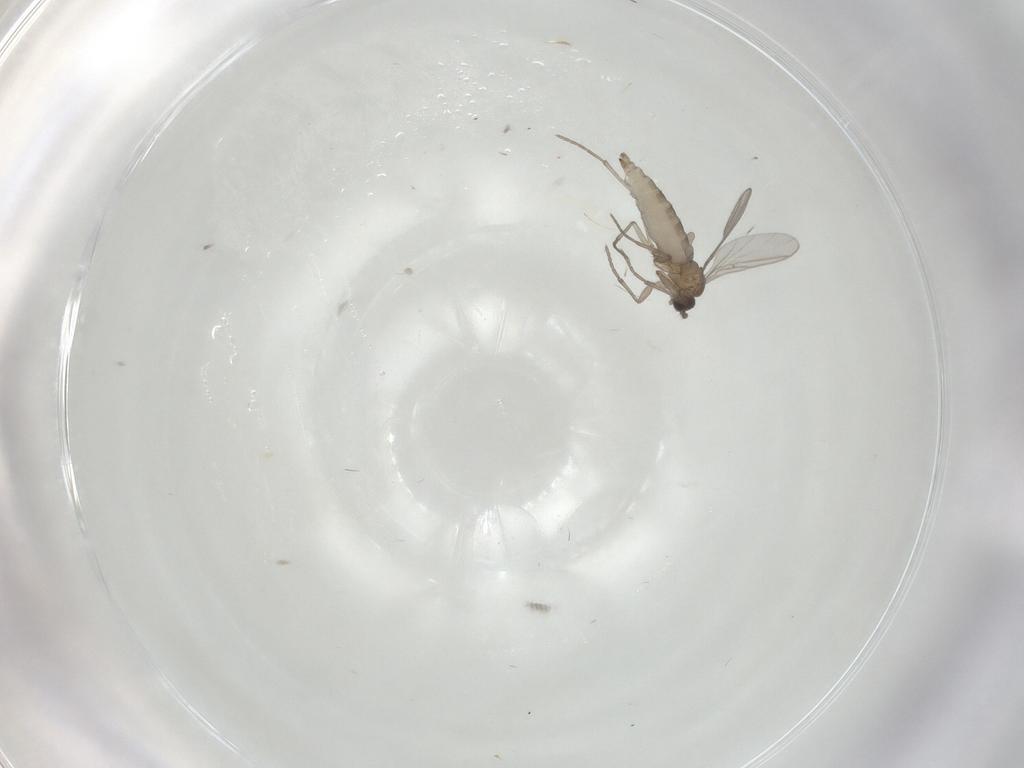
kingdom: Animalia
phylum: Arthropoda
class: Insecta
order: Diptera
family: Sciaridae
